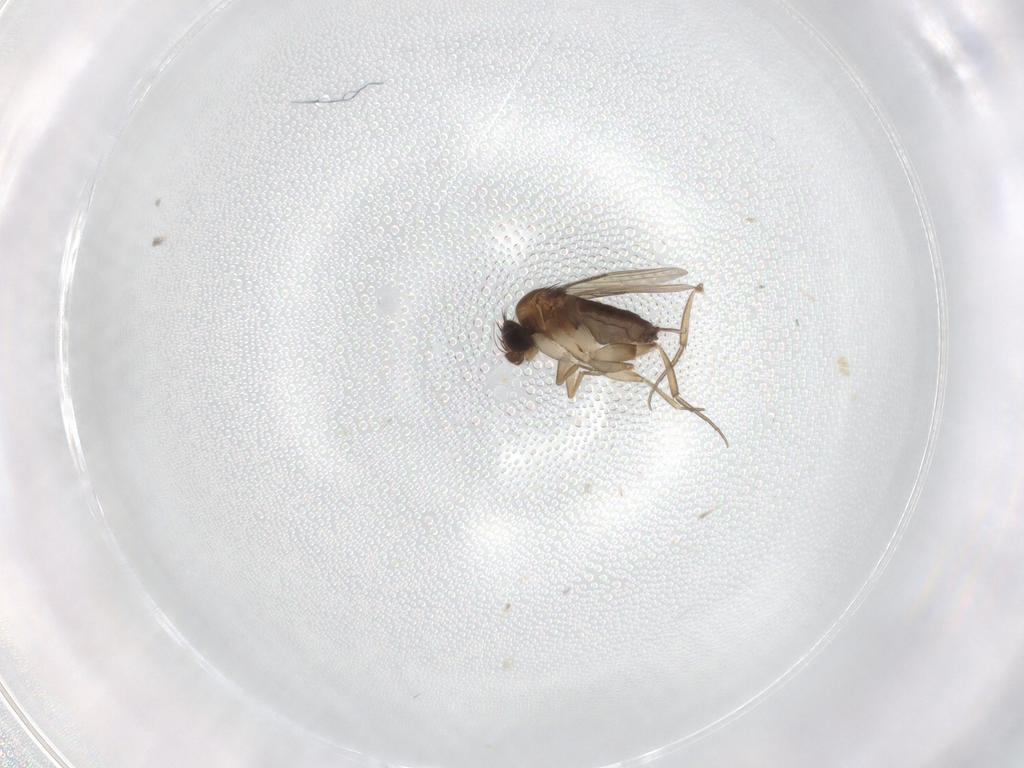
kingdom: Animalia
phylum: Arthropoda
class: Insecta
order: Diptera
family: Phoridae
